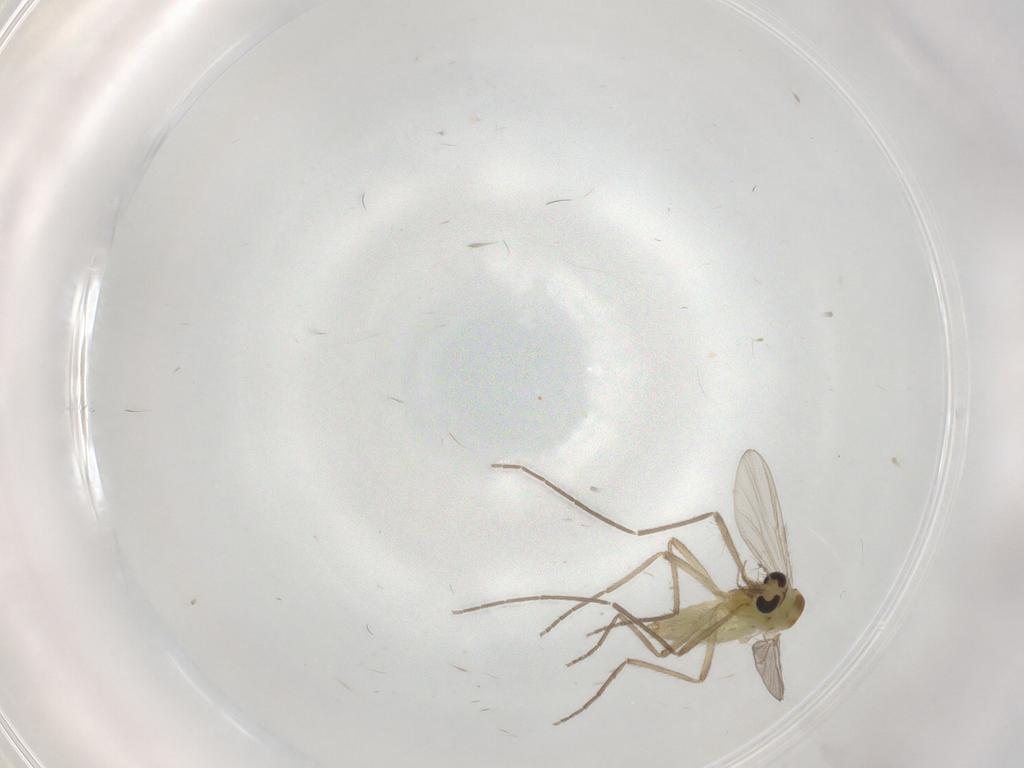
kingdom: Animalia
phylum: Arthropoda
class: Insecta
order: Diptera
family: Chironomidae
